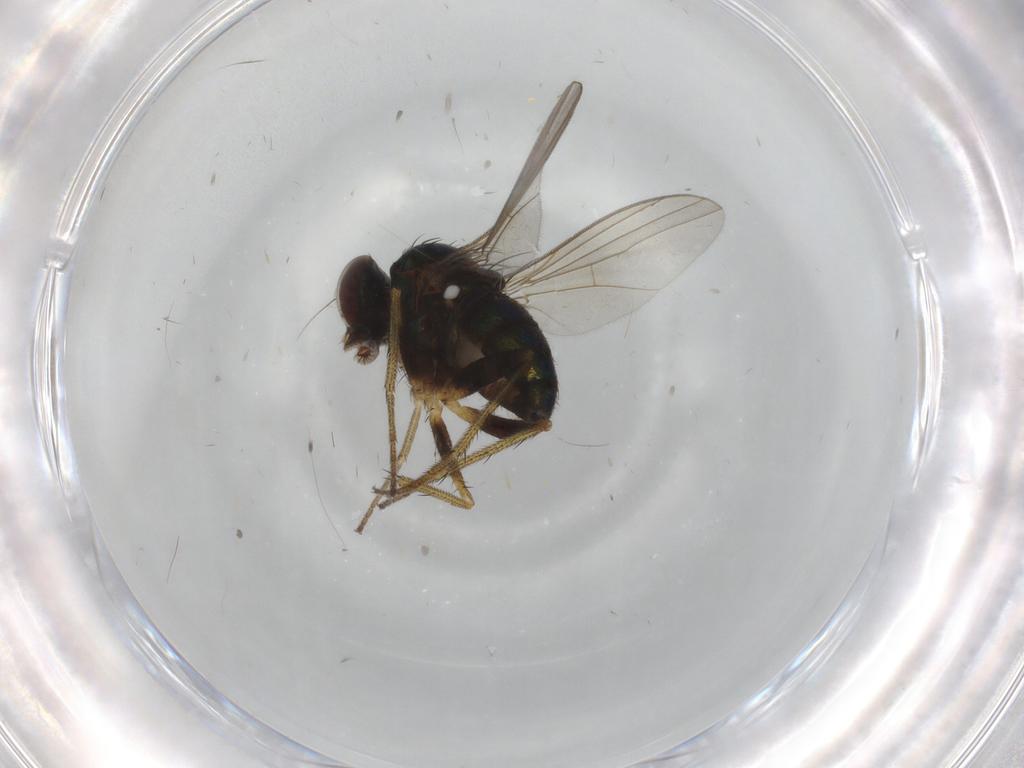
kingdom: Animalia
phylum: Arthropoda
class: Insecta
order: Diptera
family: Dolichopodidae
